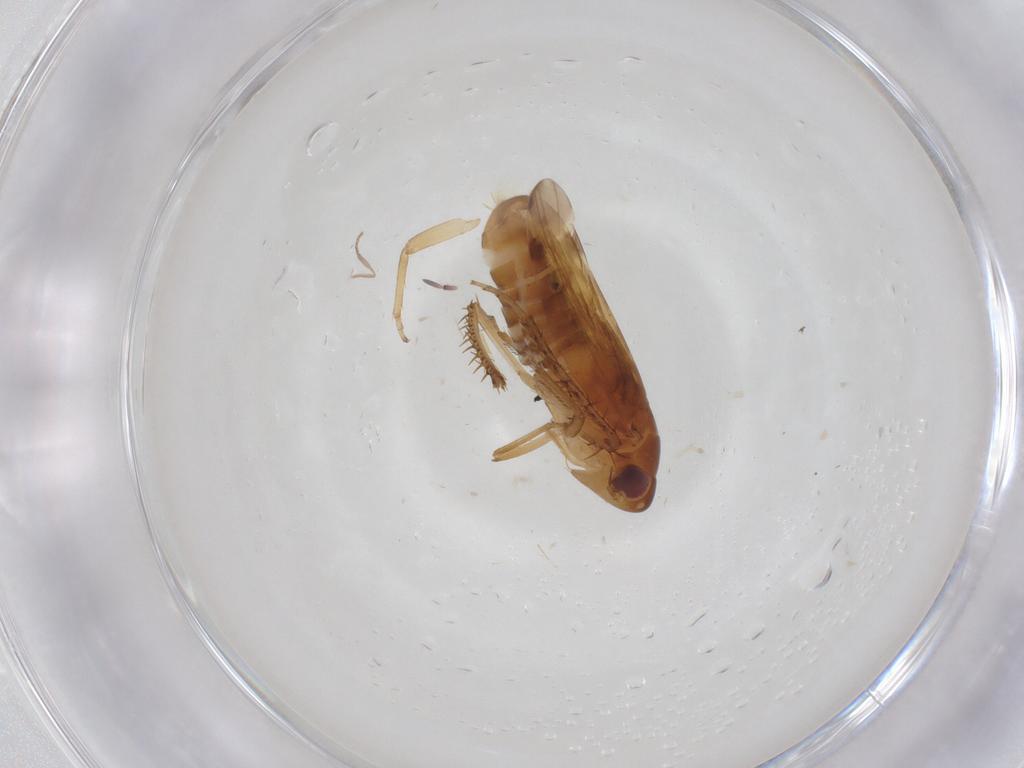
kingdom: Animalia
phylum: Arthropoda
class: Insecta
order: Hemiptera
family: Cicadellidae
